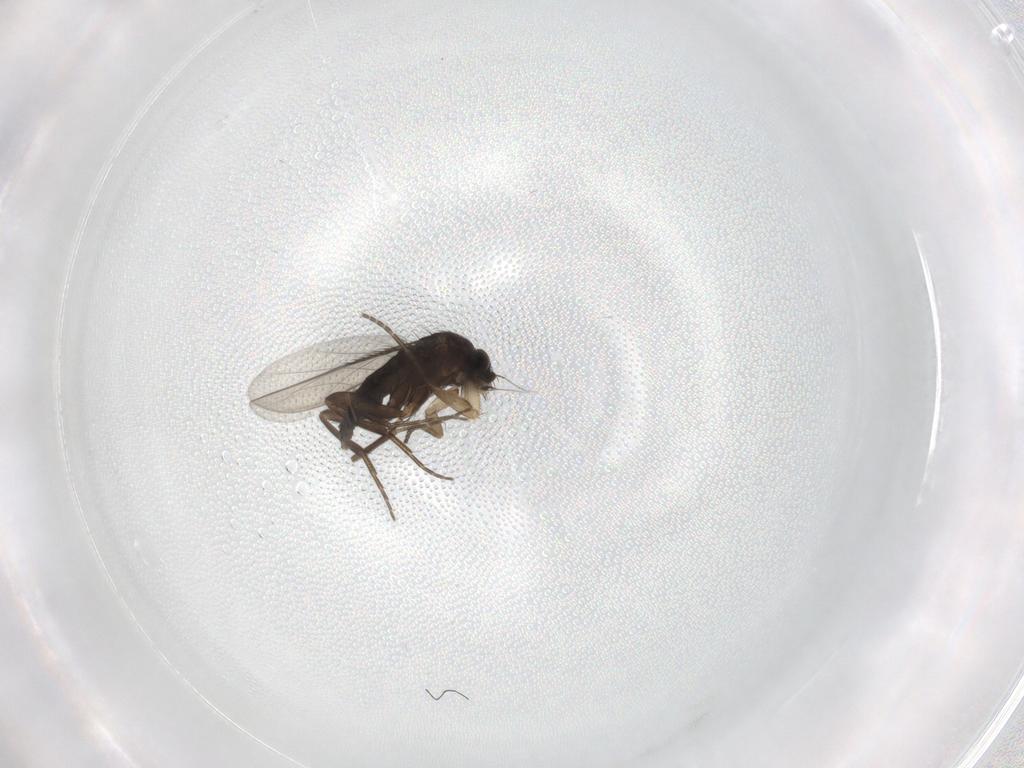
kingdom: Animalia
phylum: Arthropoda
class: Insecta
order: Diptera
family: Phoridae
